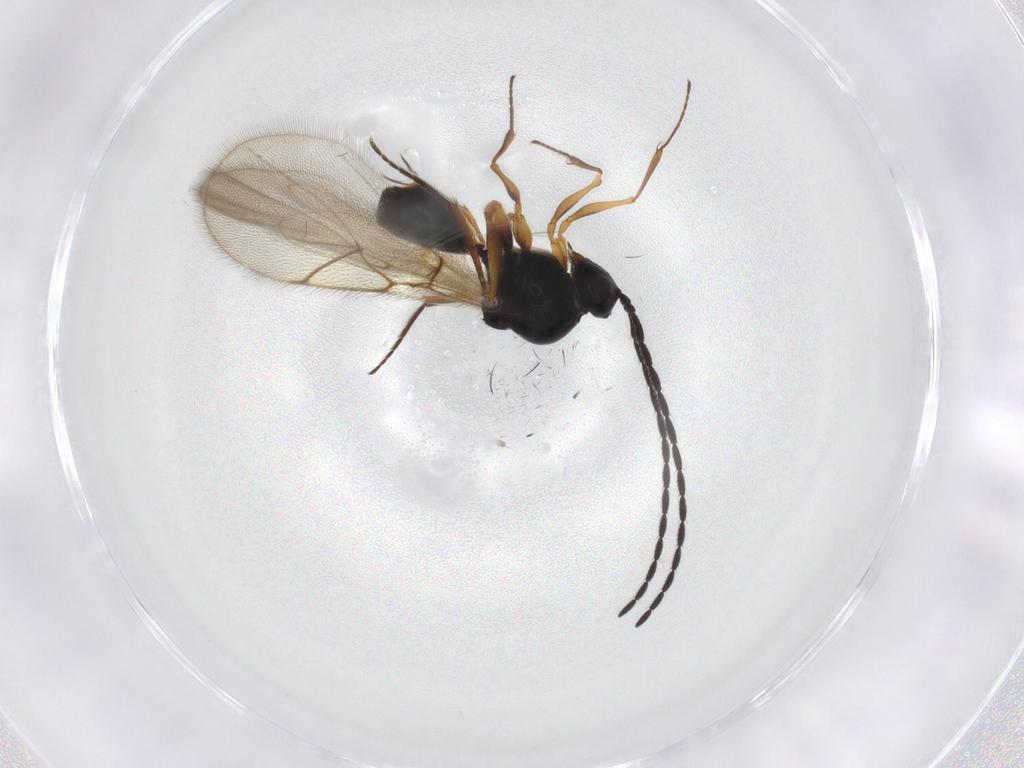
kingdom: Animalia
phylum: Arthropoda
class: Insecta
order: Hymenoptera
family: Figitidae
